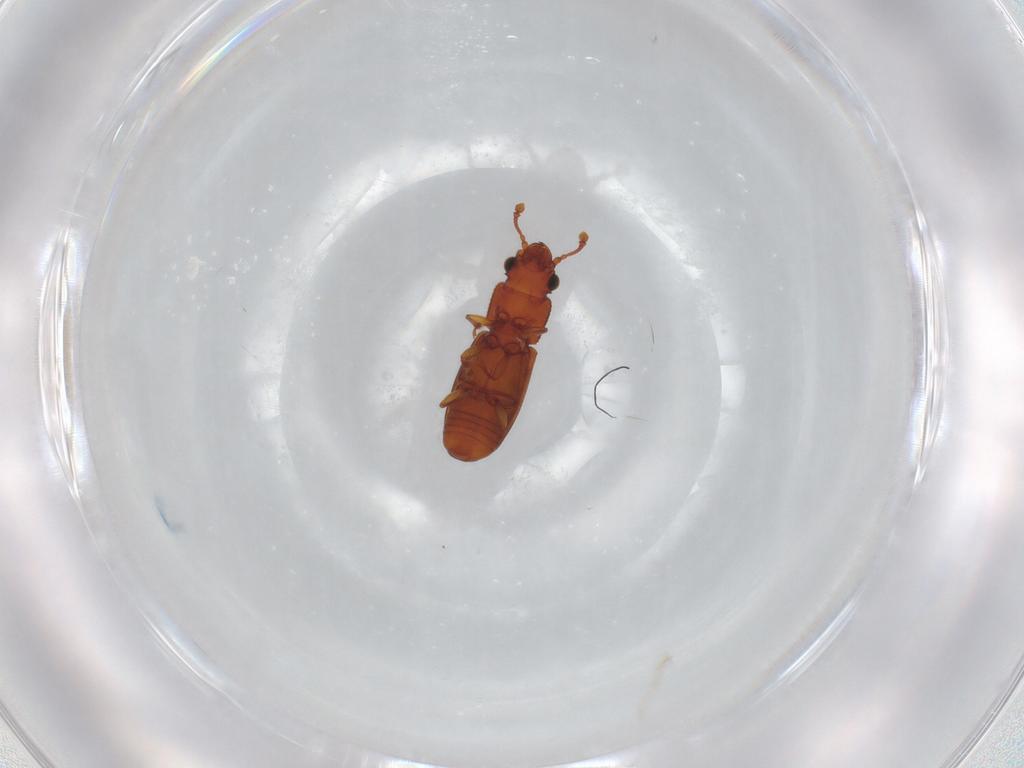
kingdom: Animalia
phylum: Arthropoda
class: Insecta
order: Coleoptera
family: Monotomidae
